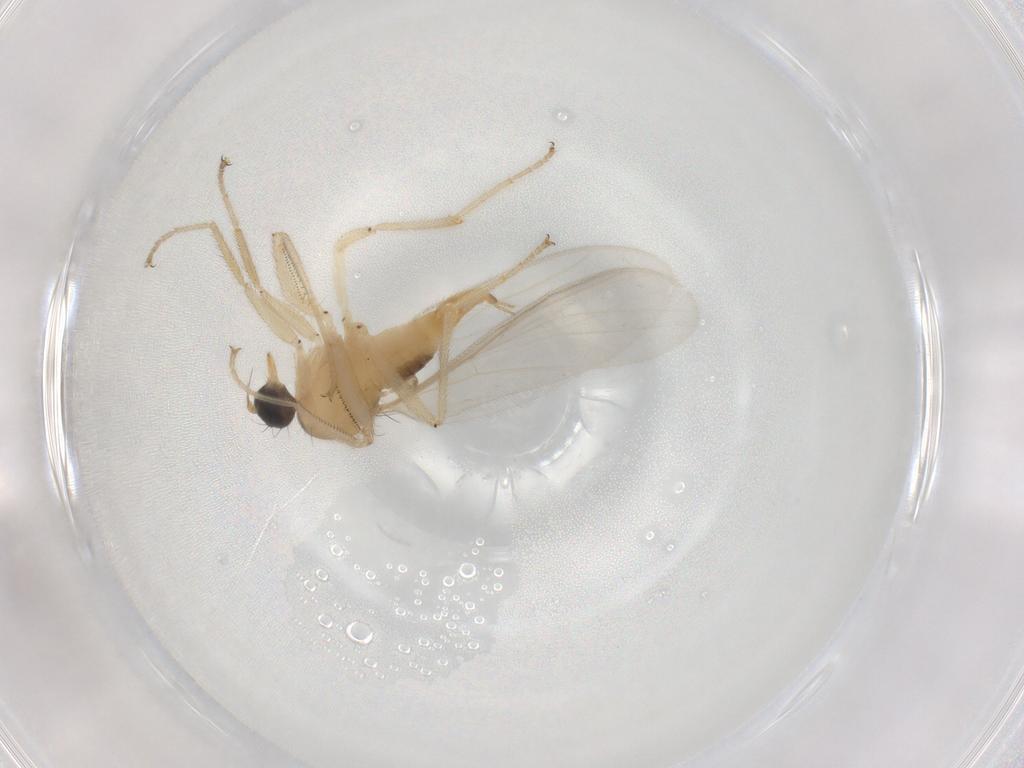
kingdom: Animalia
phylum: Arthropoda
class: Insecta
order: Diptera
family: Hybotidae
